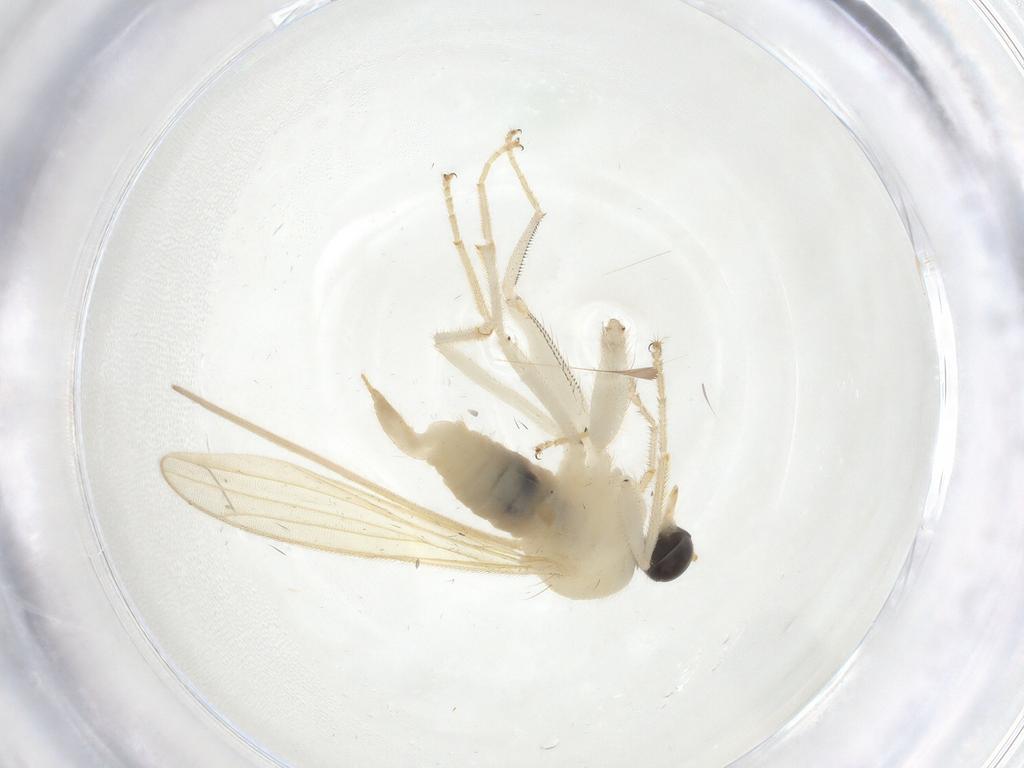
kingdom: Animalia
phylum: Arthropoda
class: Insecta
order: Diptera
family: Hybotidae
